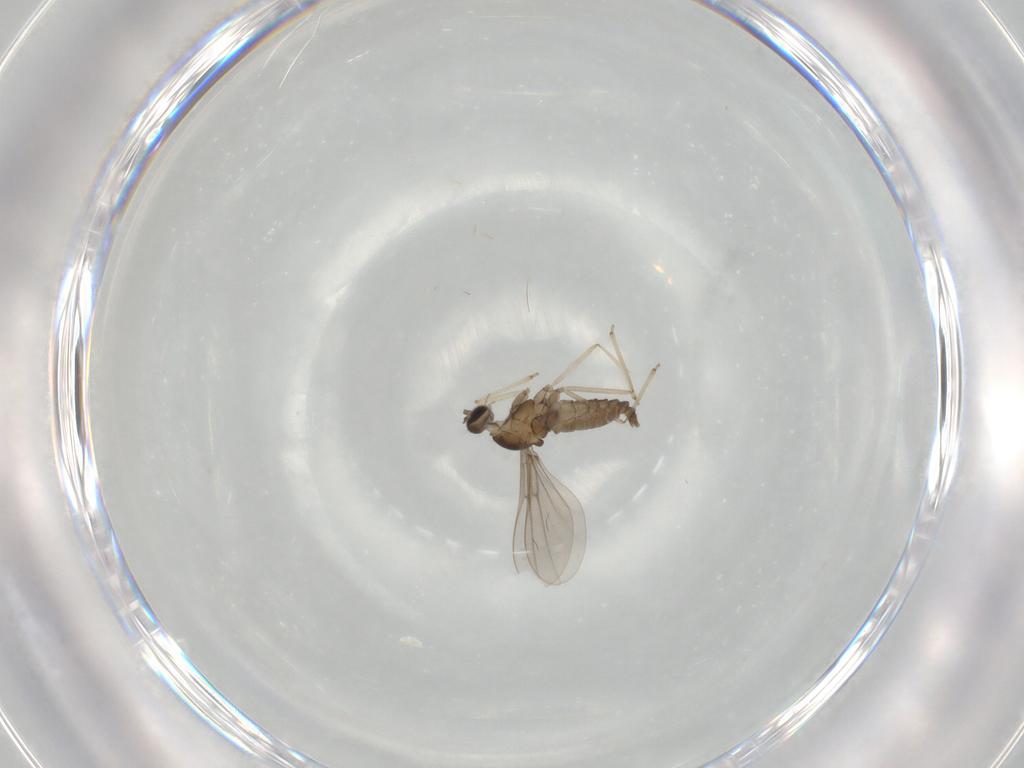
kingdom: Animalia
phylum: Arthropoda
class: Insecta
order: Diptera
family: Cecidomyiidae
